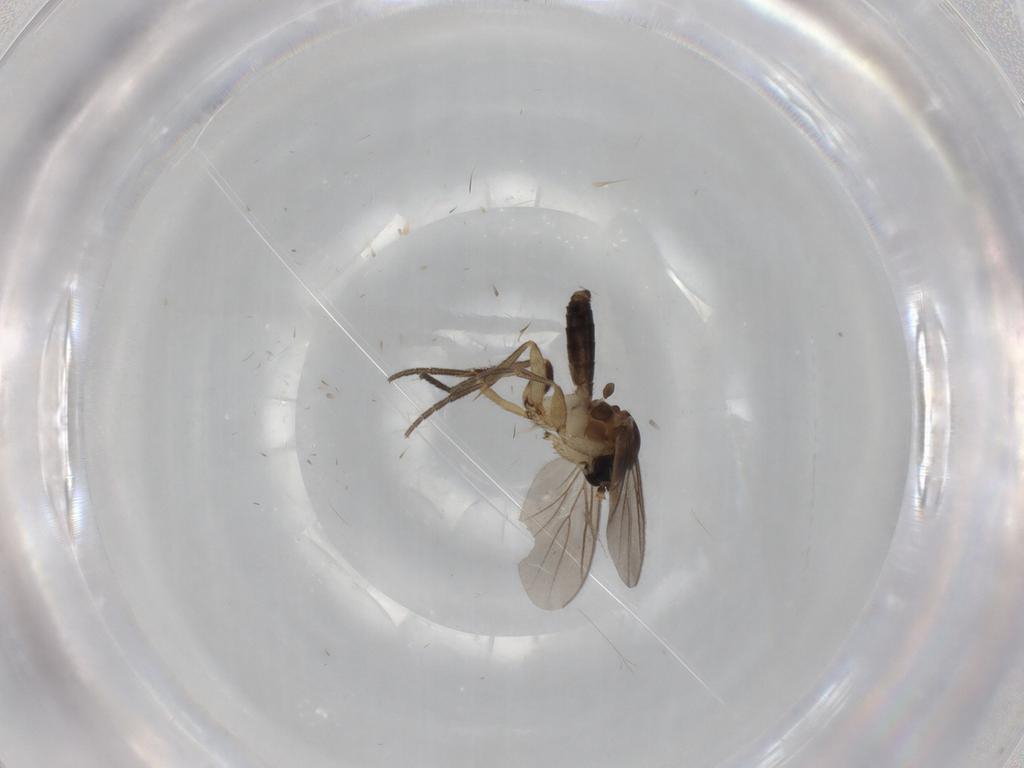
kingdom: Animalia
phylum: Arthropoda
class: Insecta
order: Diptera
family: Mycetophilidae
